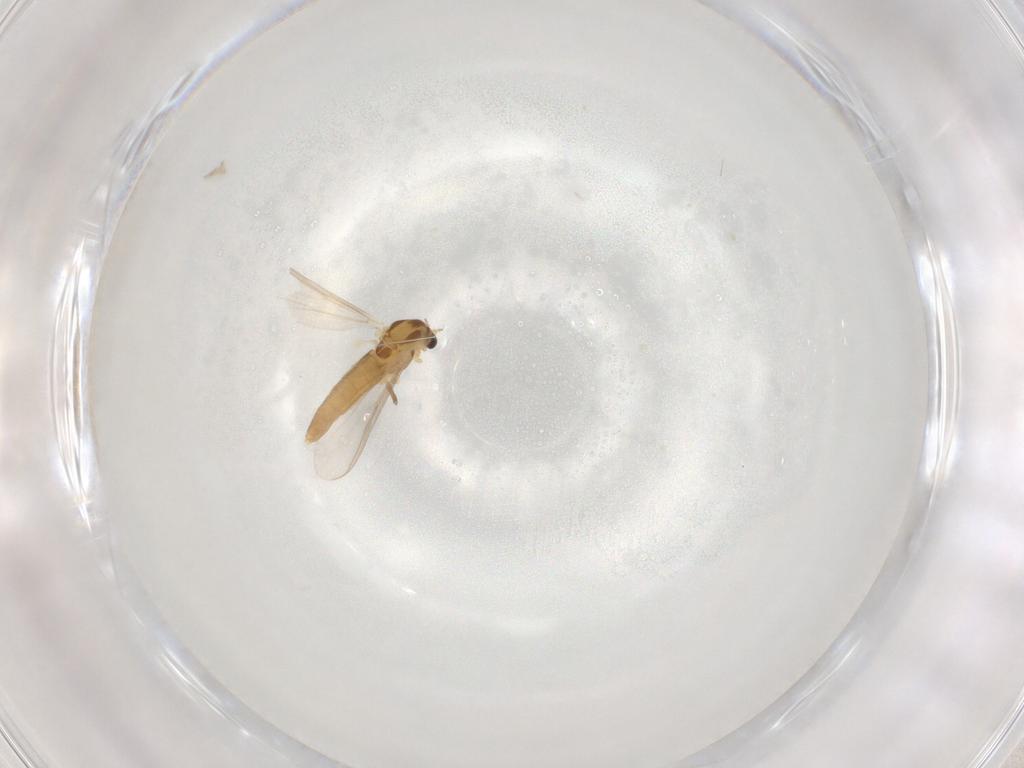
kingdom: Animalia
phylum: Arthropoda
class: Insecta
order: Diptera
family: Chironomidae
